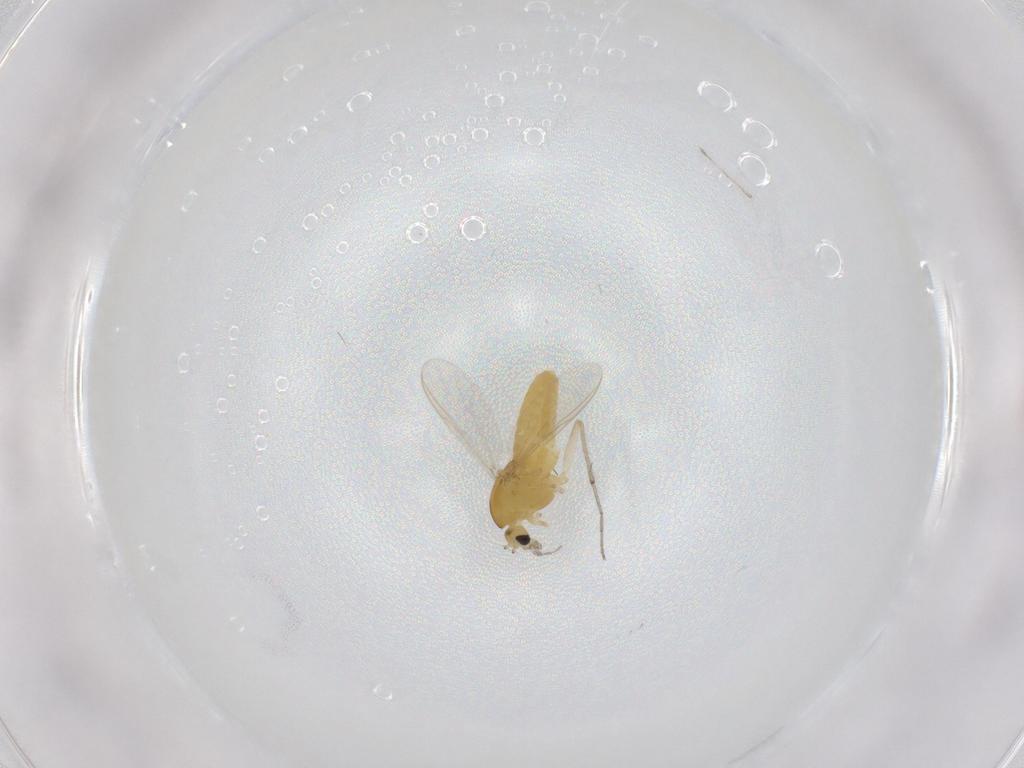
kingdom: Animalia
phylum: Arthropoda
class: Insecta
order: Diptera
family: Chironomidae
